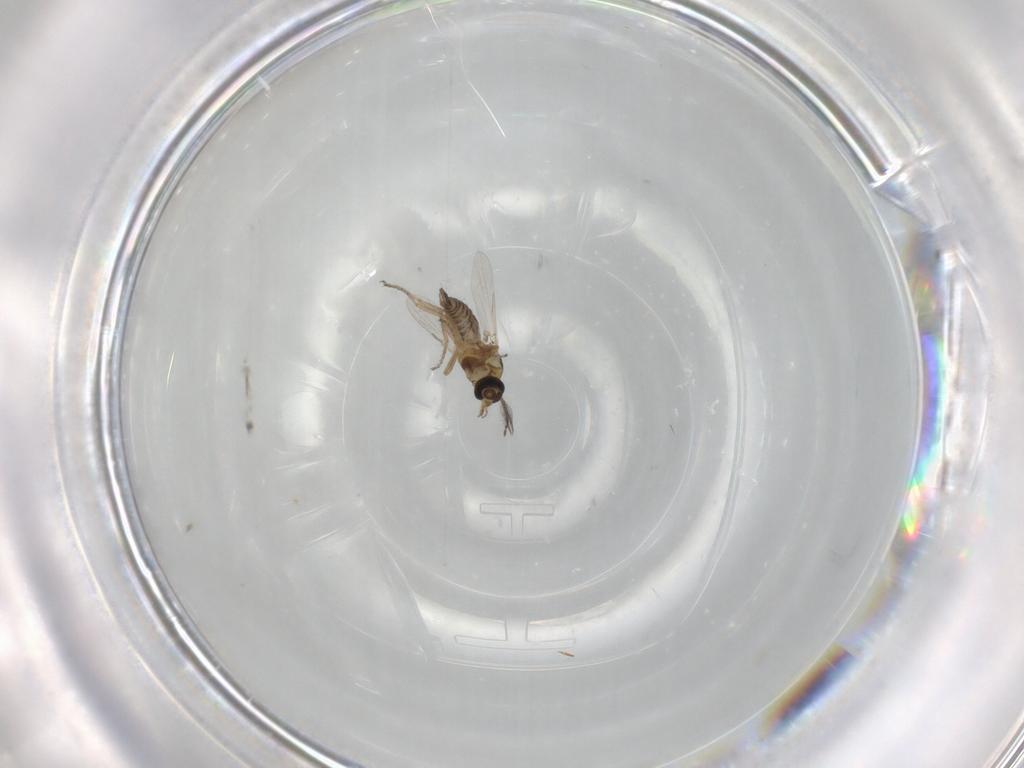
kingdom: Animalia
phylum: Arthropoda
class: Insecta
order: Diptera
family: Ceratopogonidae
